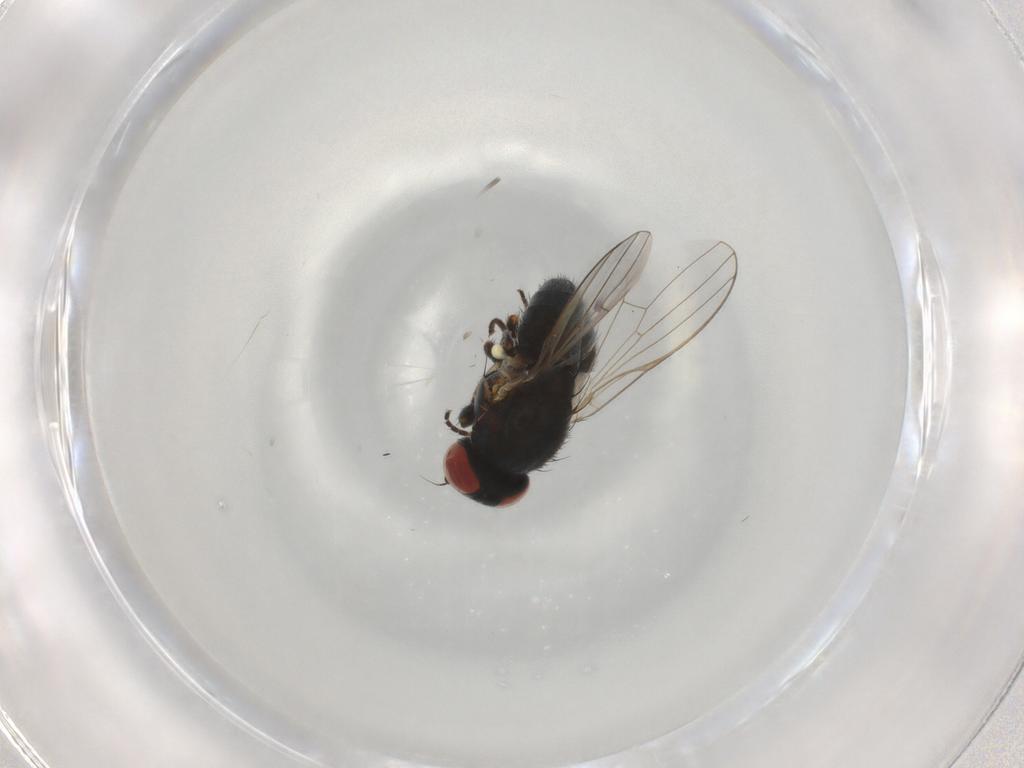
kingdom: Animalia
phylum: Arthropoda
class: Insecta
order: Diptera
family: Chamaemyiidae
